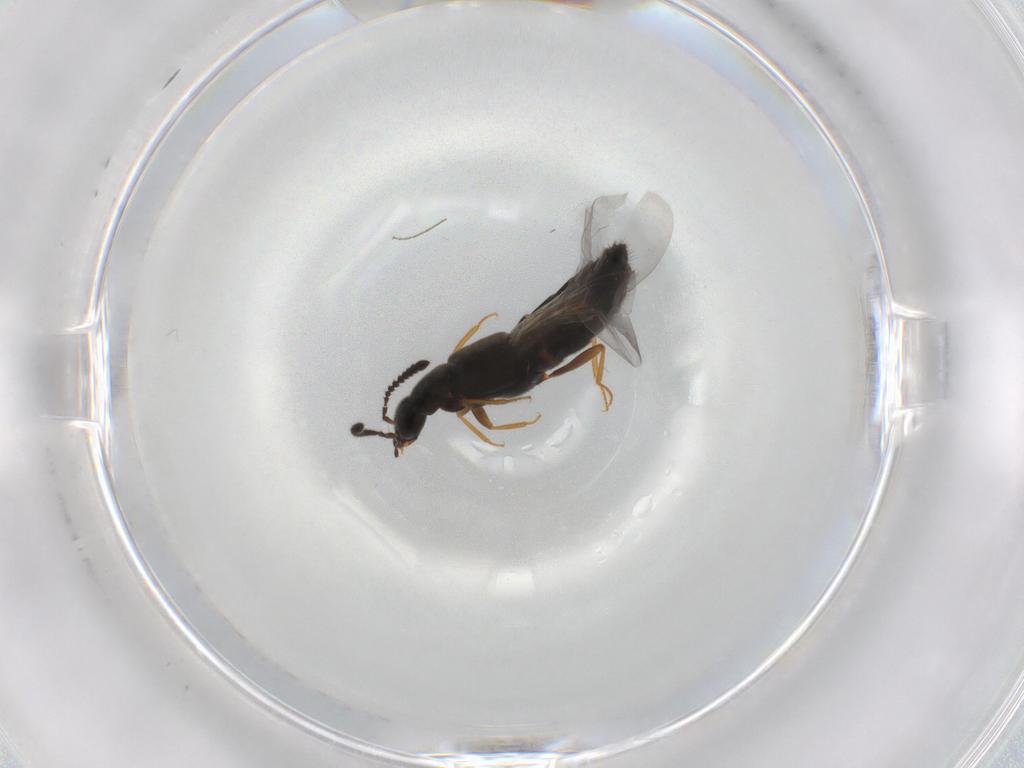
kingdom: Animalia
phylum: Arthropoda
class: Insecta
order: Coleoptera
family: Staphylinidae
